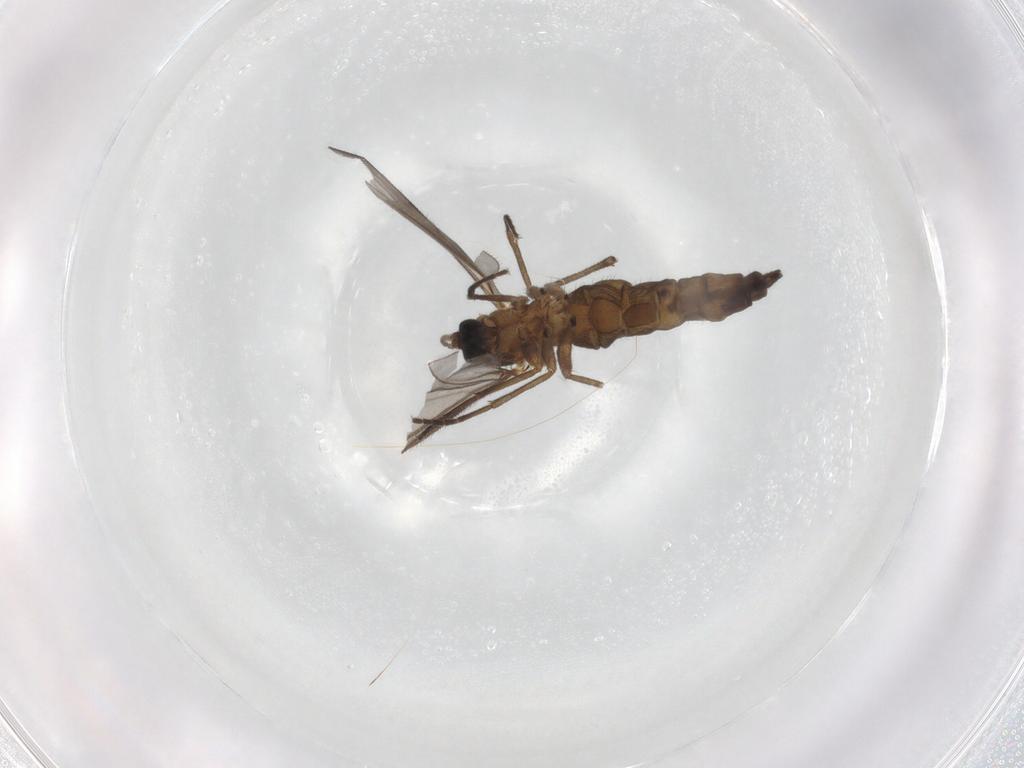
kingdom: Animalia
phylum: Arthropoda
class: Insecta
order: Diptera
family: Sciaridae
